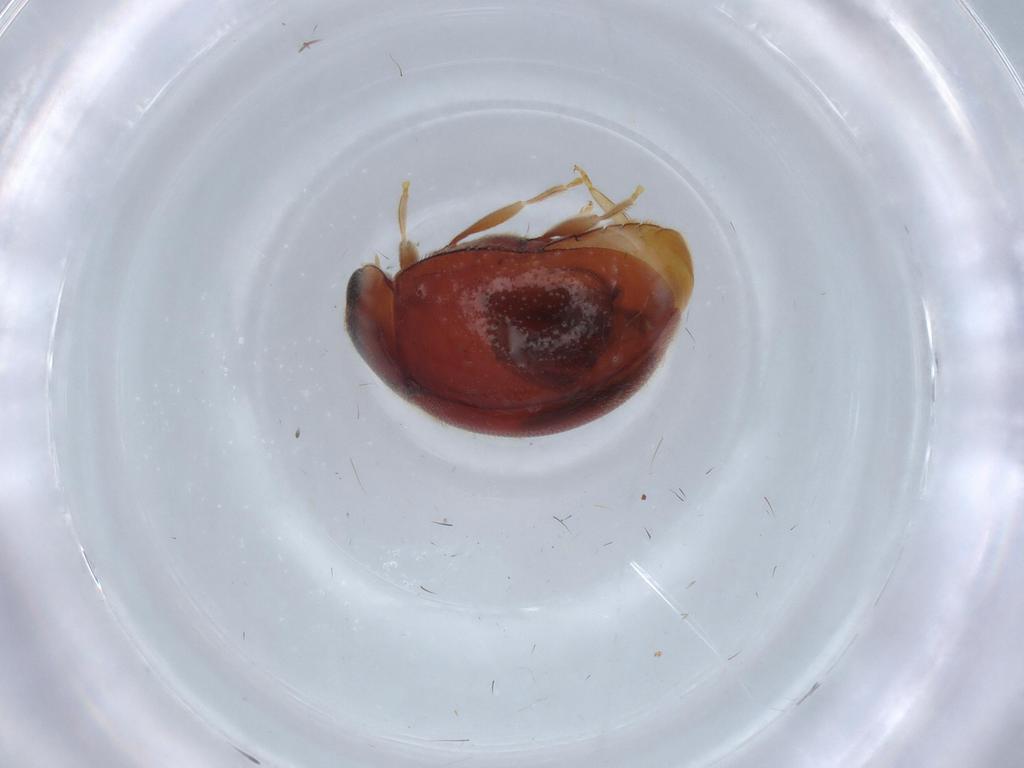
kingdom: Animalia
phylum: Arthropoda
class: Insecta
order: Coleoptera
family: Coccinellidae
